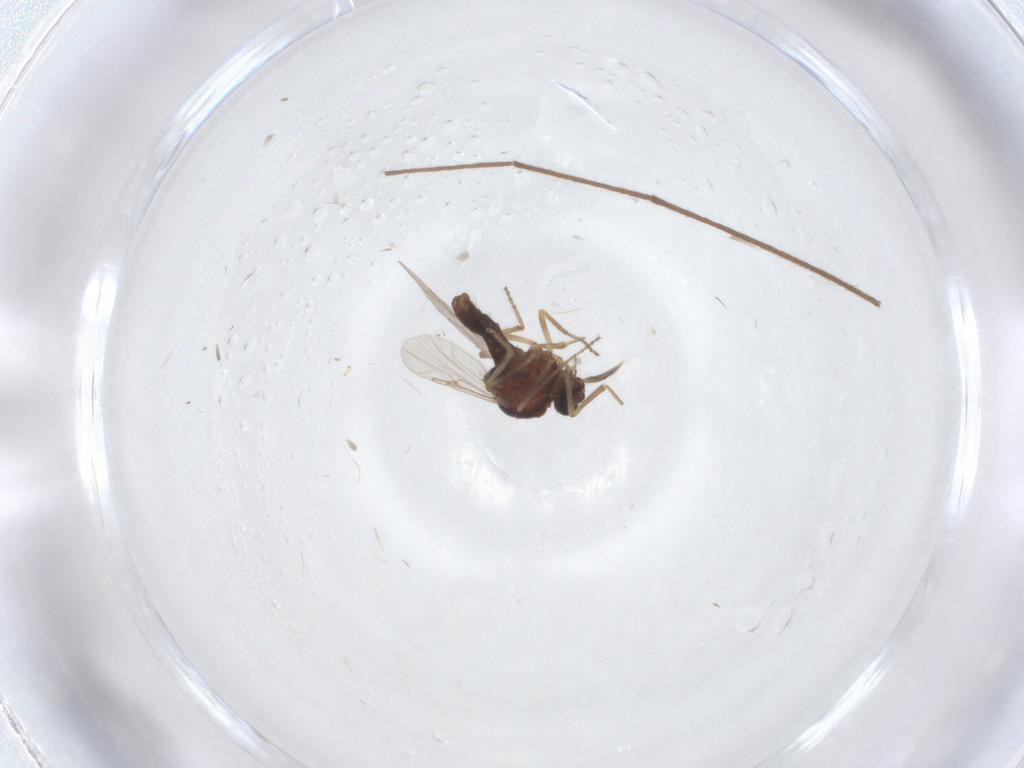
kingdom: Animalia
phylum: Arthropoda
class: Insecta
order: Diptera
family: Chironomidae
